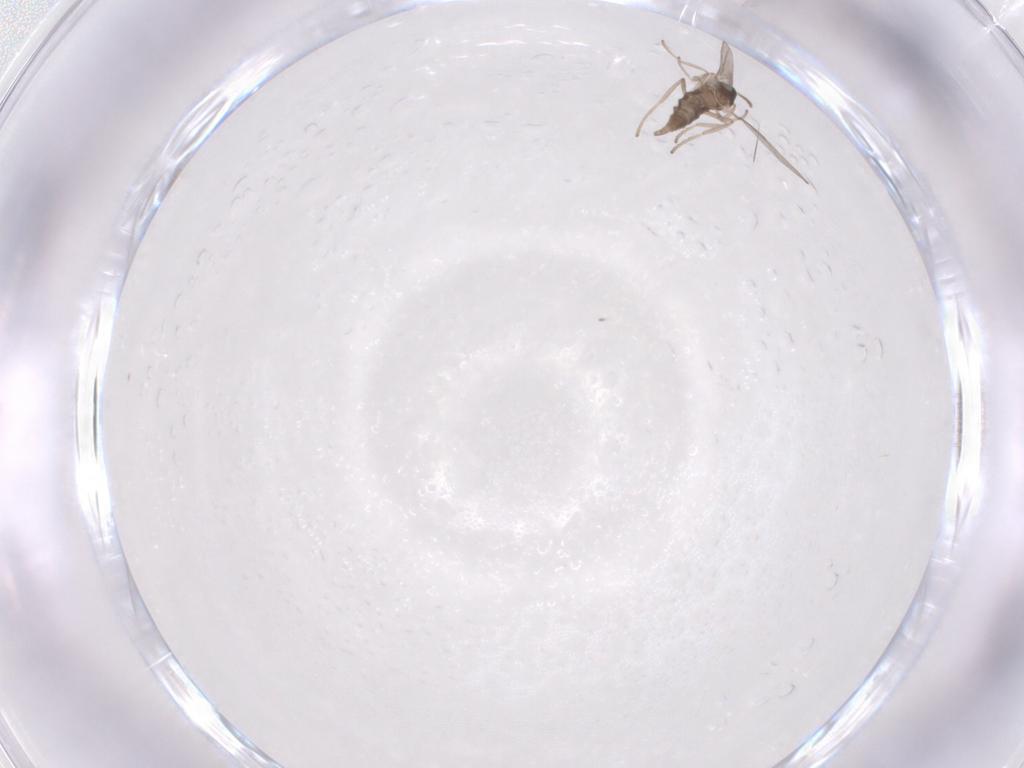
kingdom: Animalia
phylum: Arthropoda
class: Insecta
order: Diptera
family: Cecidomyiidae
